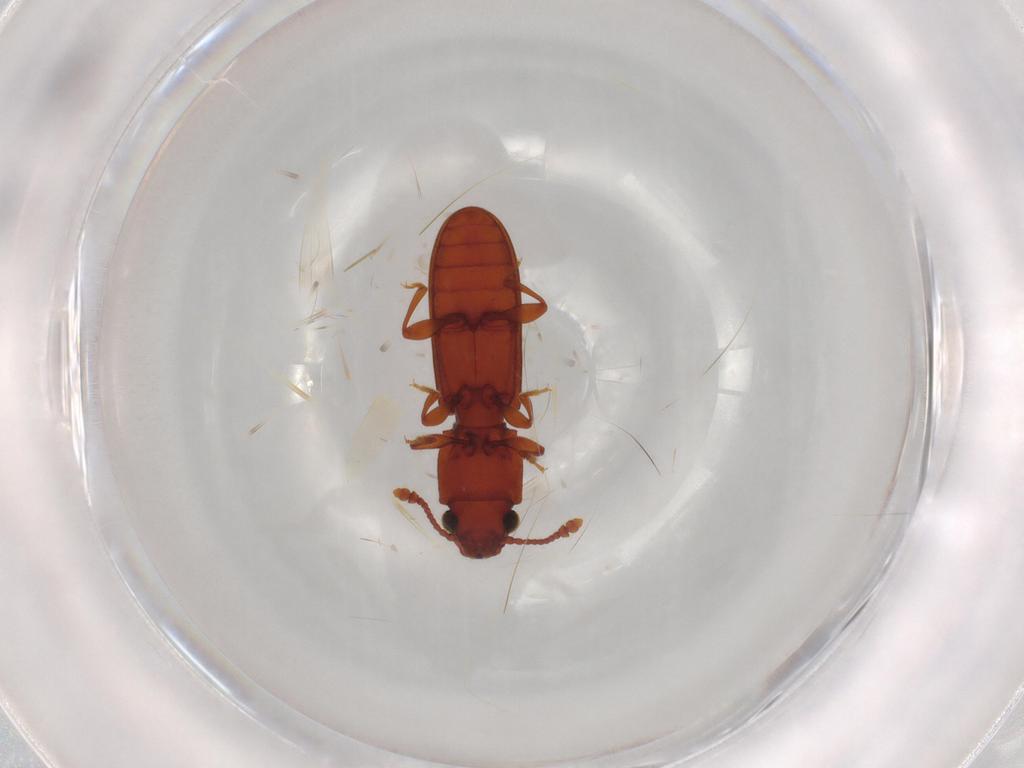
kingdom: Animalia
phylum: Arthropoda
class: Insecta
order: Coleoptera
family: Silvanidae
